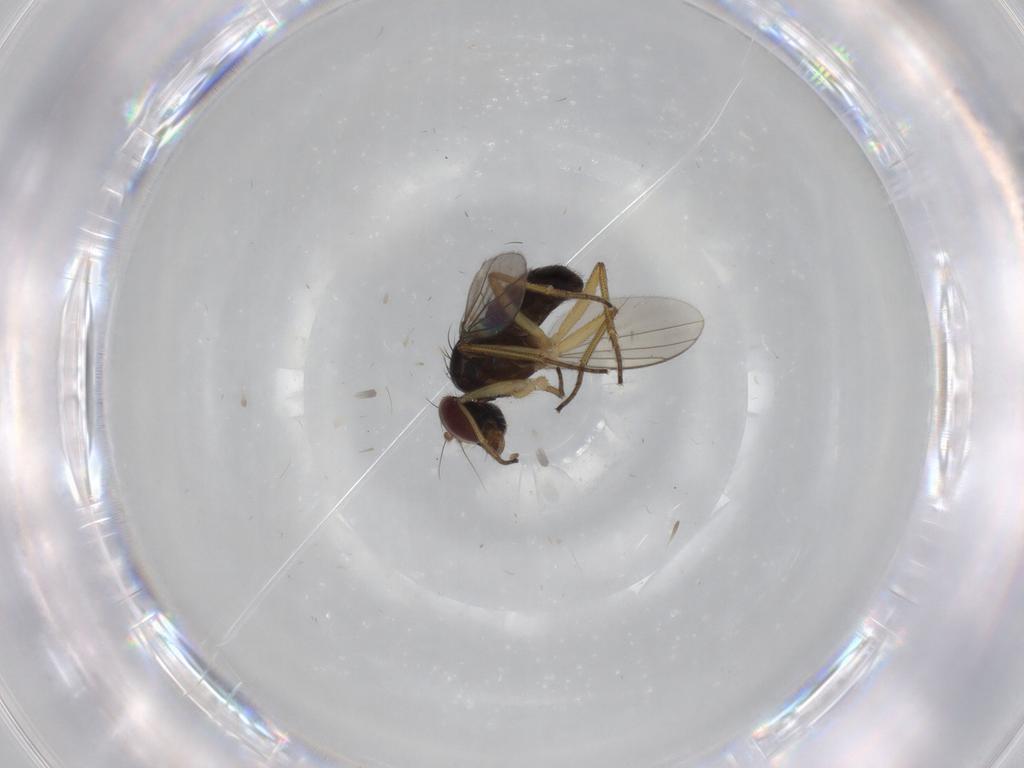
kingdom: Animalia
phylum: Arthropoda
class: Insecta
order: Diptera
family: Dolichopodidae
